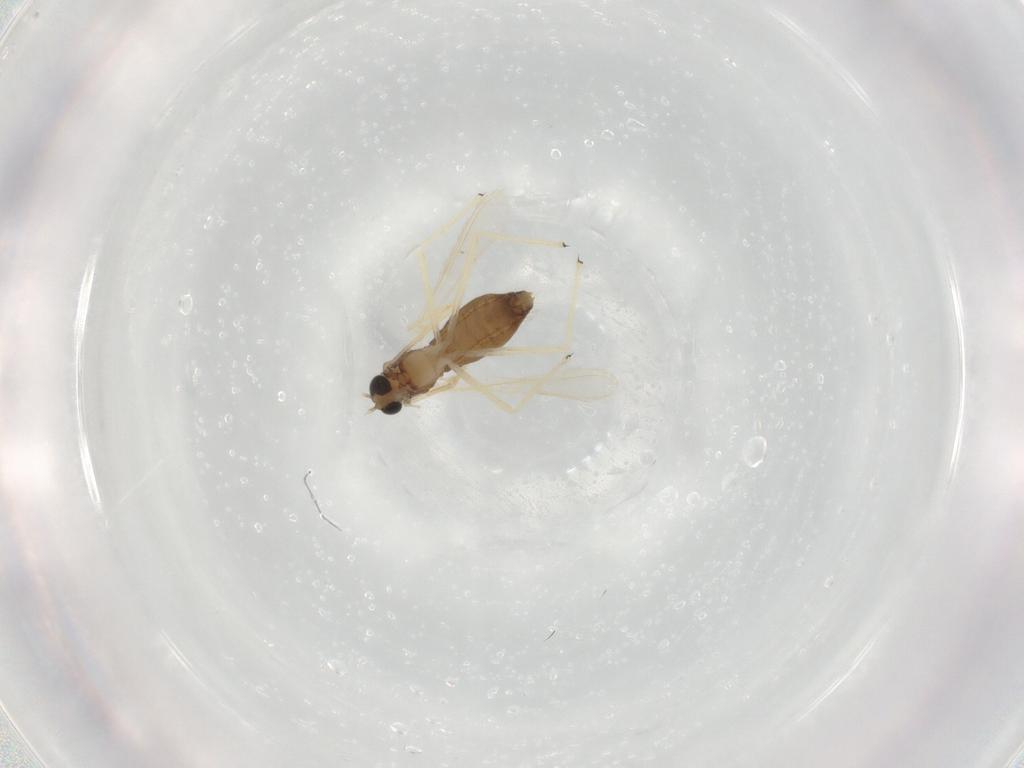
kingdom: Animalia
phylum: Arthropoda
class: Insecta
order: Diptera
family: Chironomidae
